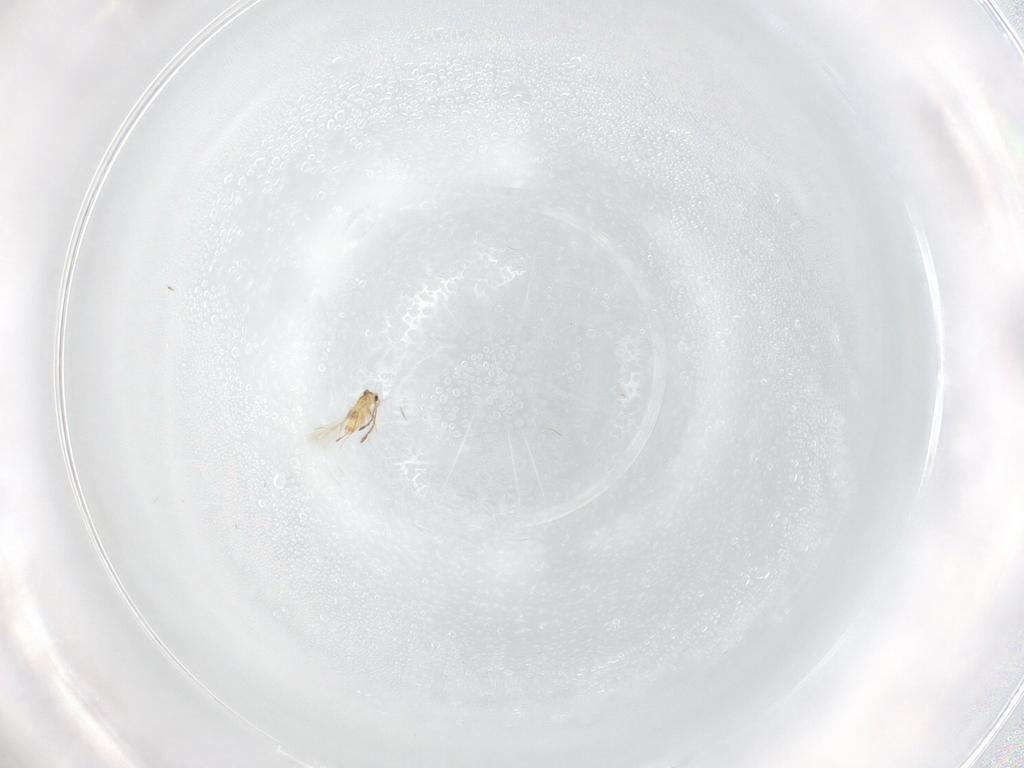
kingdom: Animalia
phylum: Arthropoda
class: Insecta
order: Hymenoptera
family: Mymaridae
